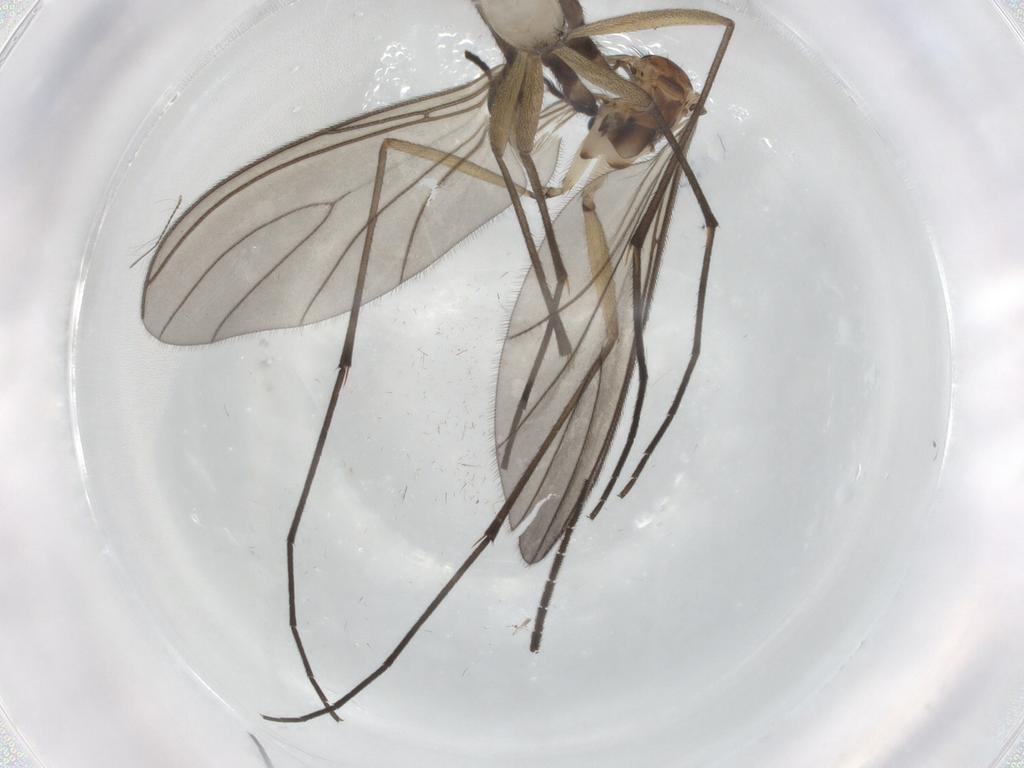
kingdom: Animalia
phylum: Arthropoda
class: Insecta
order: Diptera
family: Sciaridae
